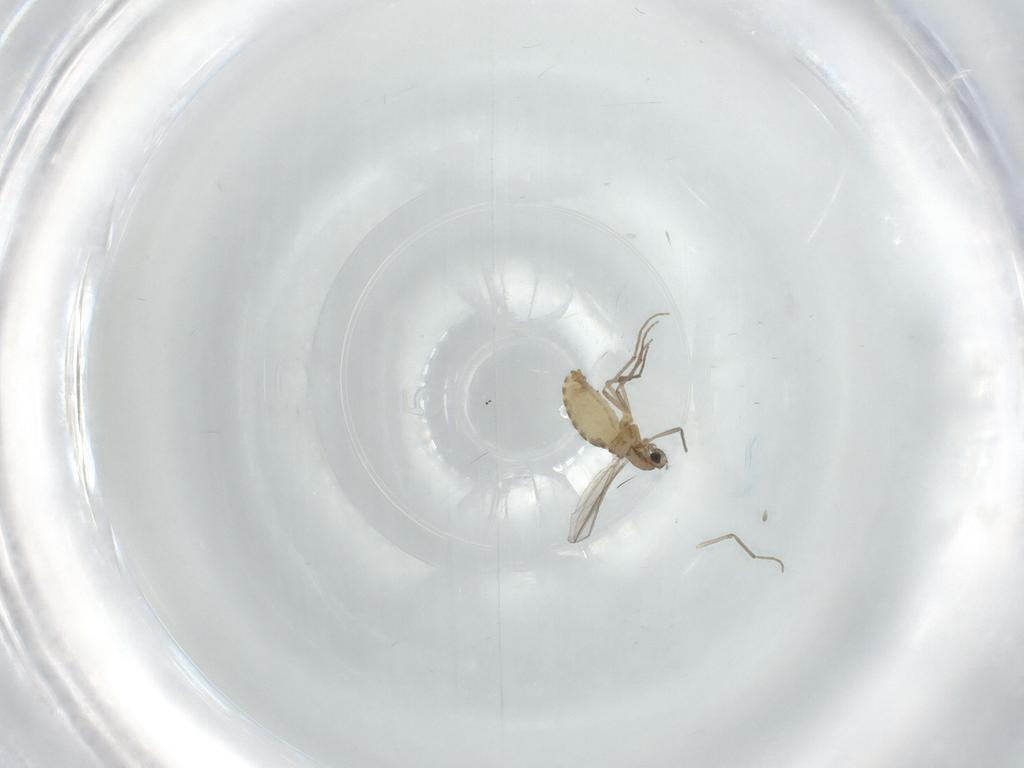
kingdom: Animalia
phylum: Arthropoda
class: Insecta
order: Diptera
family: Chironomidae
